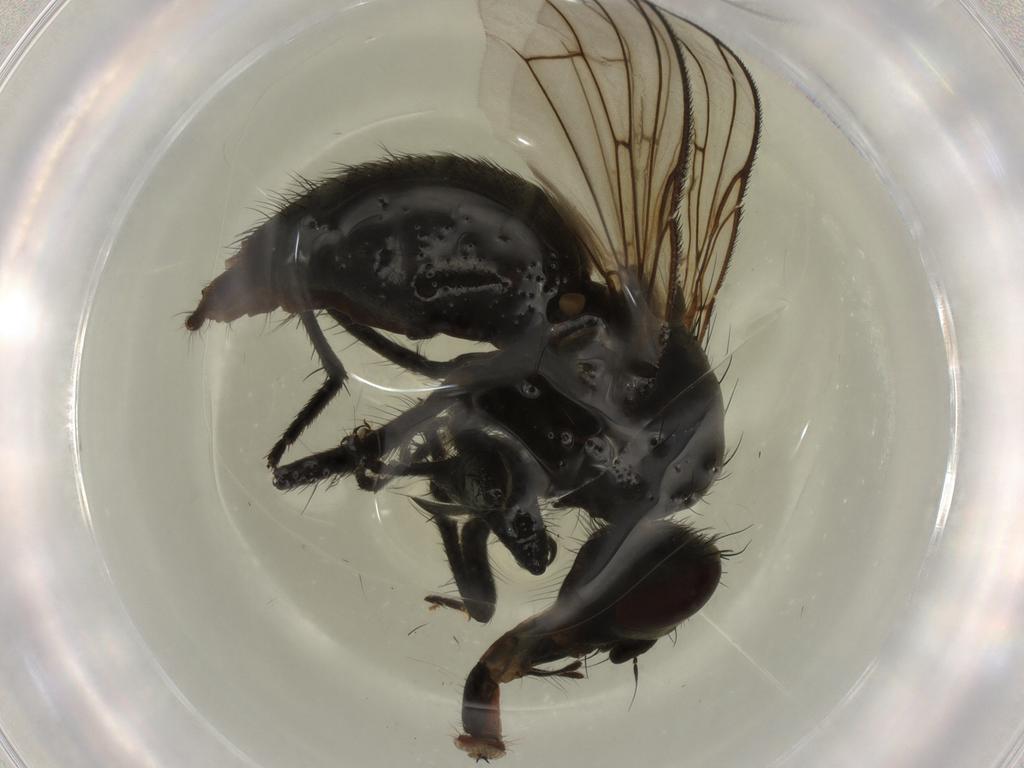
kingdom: Animalia
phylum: Arthropoda
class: Insecta
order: Diptera
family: Muscidae
